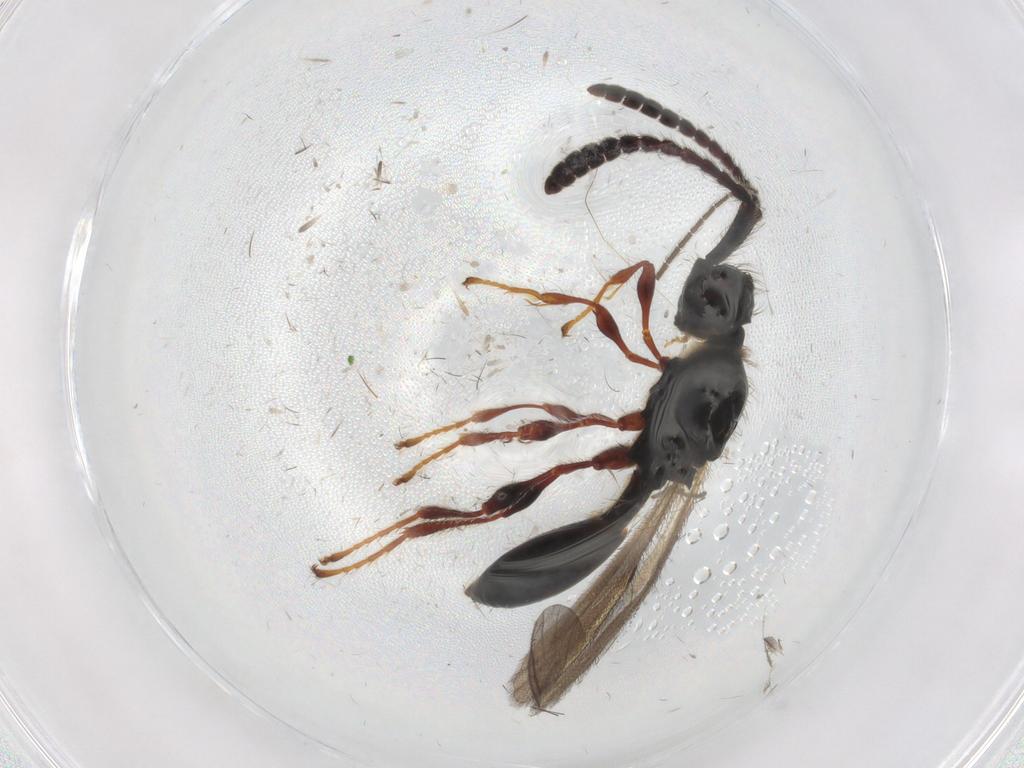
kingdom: Animalia
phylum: Arthropoda
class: Insecta
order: Hymenoptera
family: Diapriidae
